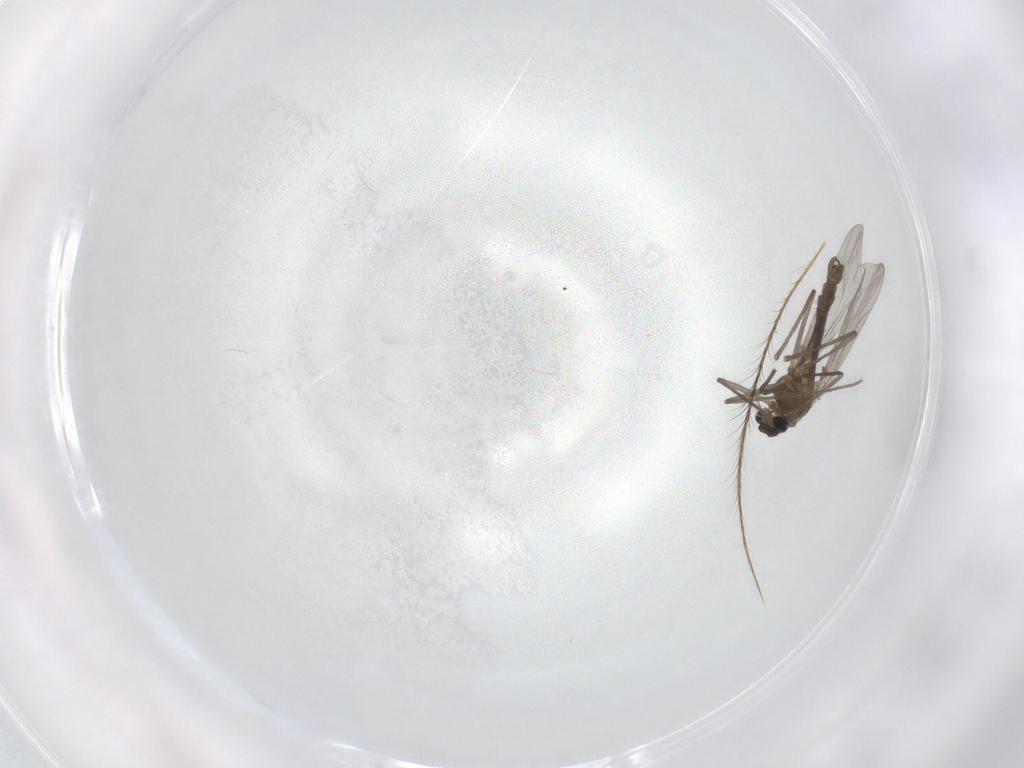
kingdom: Animalia
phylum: Arthropoda
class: Insecta
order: Diptera
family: Chironomidae
